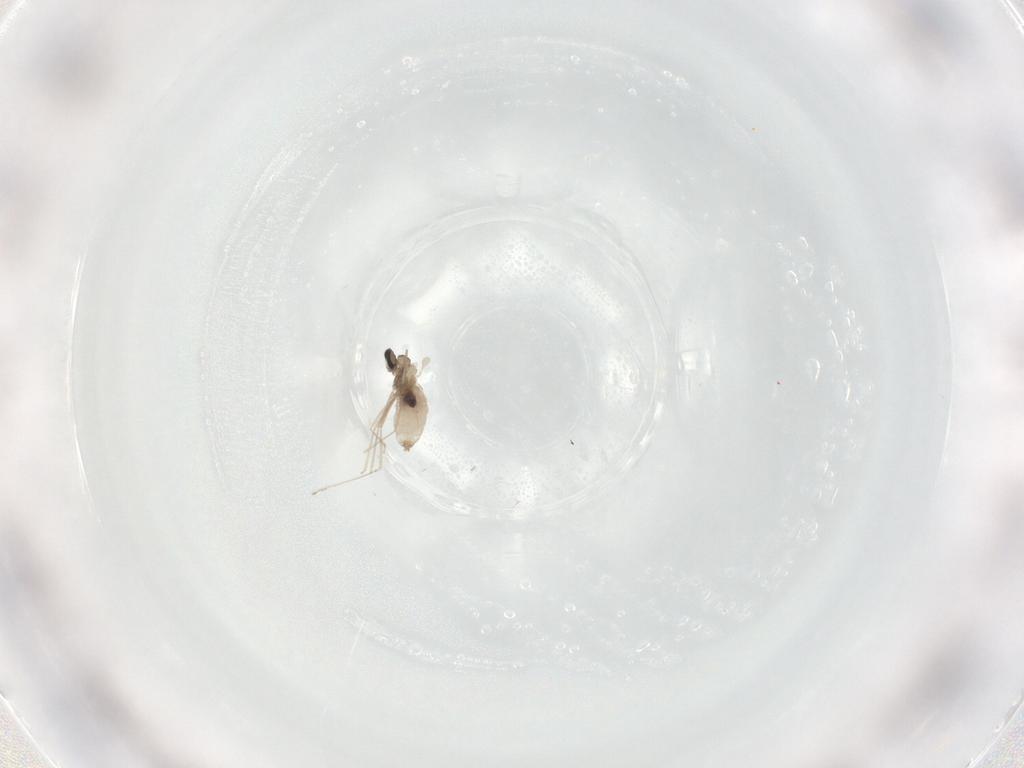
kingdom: Animalia
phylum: Arthropoda
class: Insecta
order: Diptera
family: Cecidomyiidae
